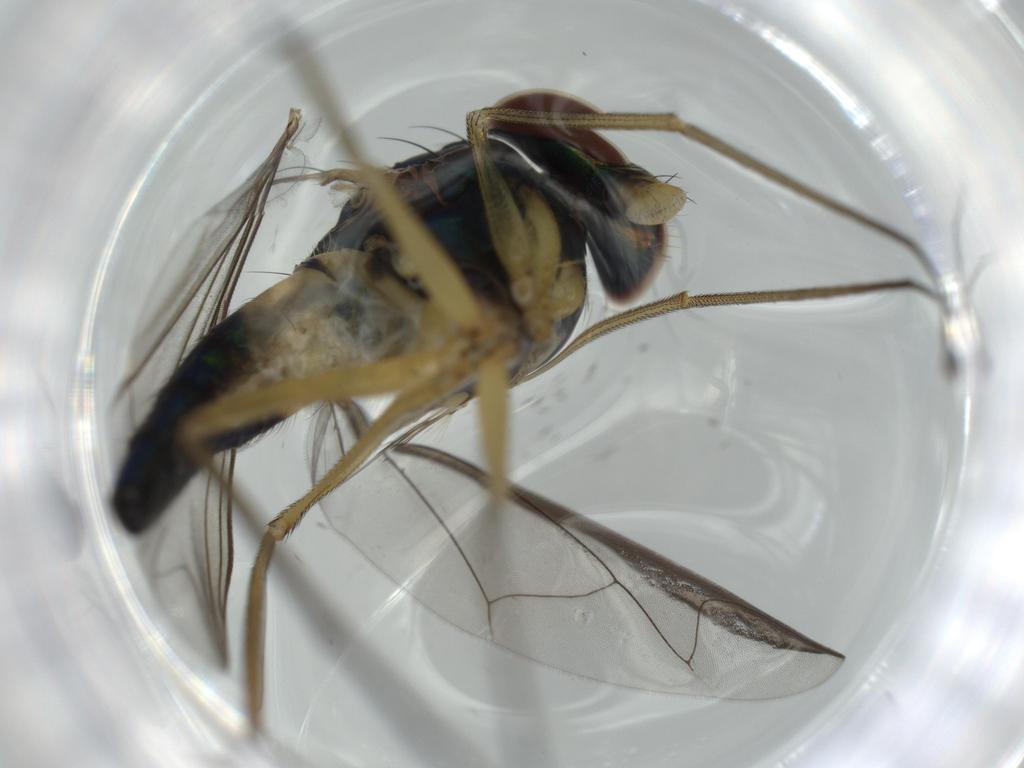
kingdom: Animalia
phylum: Arthropoda
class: Insecta
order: Diptera
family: Dolichopodidae
